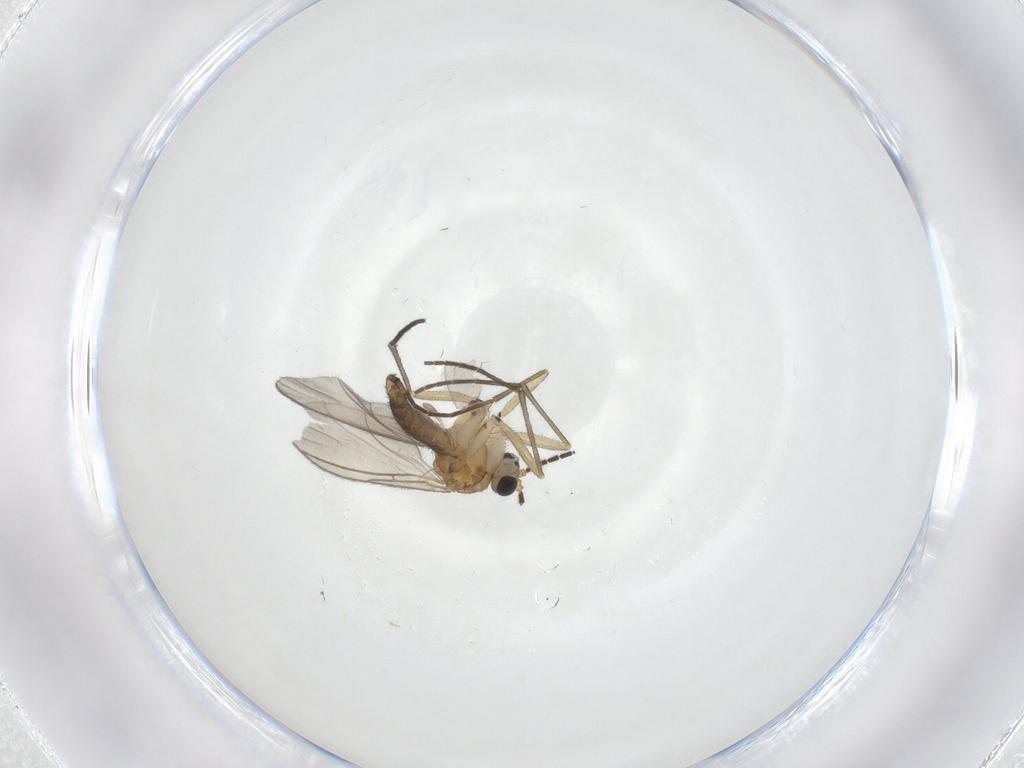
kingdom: Animalia
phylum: Arthropoda
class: Insecta
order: Diptera
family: Sciaridae
